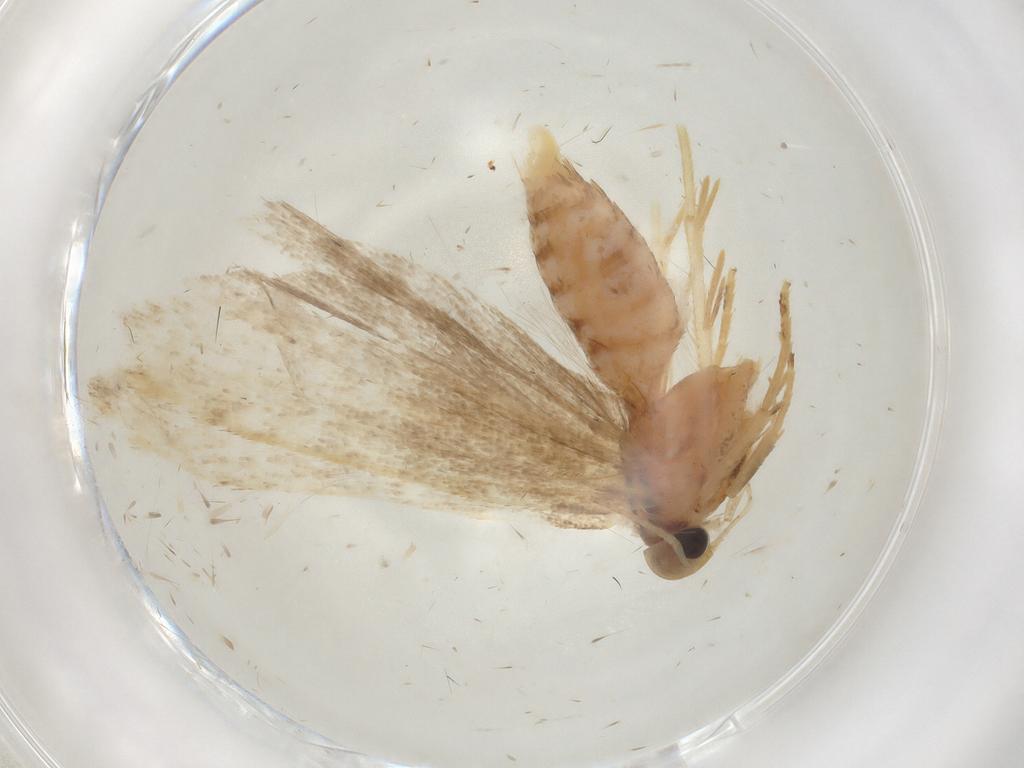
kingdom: Animalia
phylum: Arthropoda
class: Insecta
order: Lepidoptera
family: Gelechiidae
